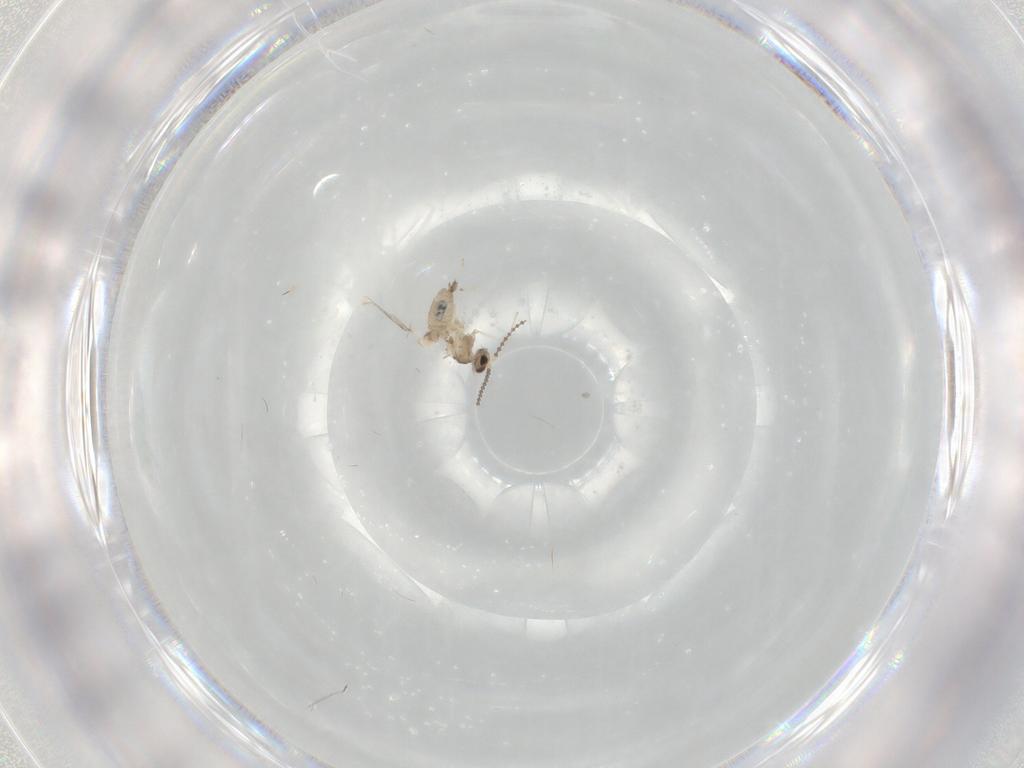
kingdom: Animalia
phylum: Arthropoda
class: Insecta
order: Diptera
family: Cecidomyiidae
